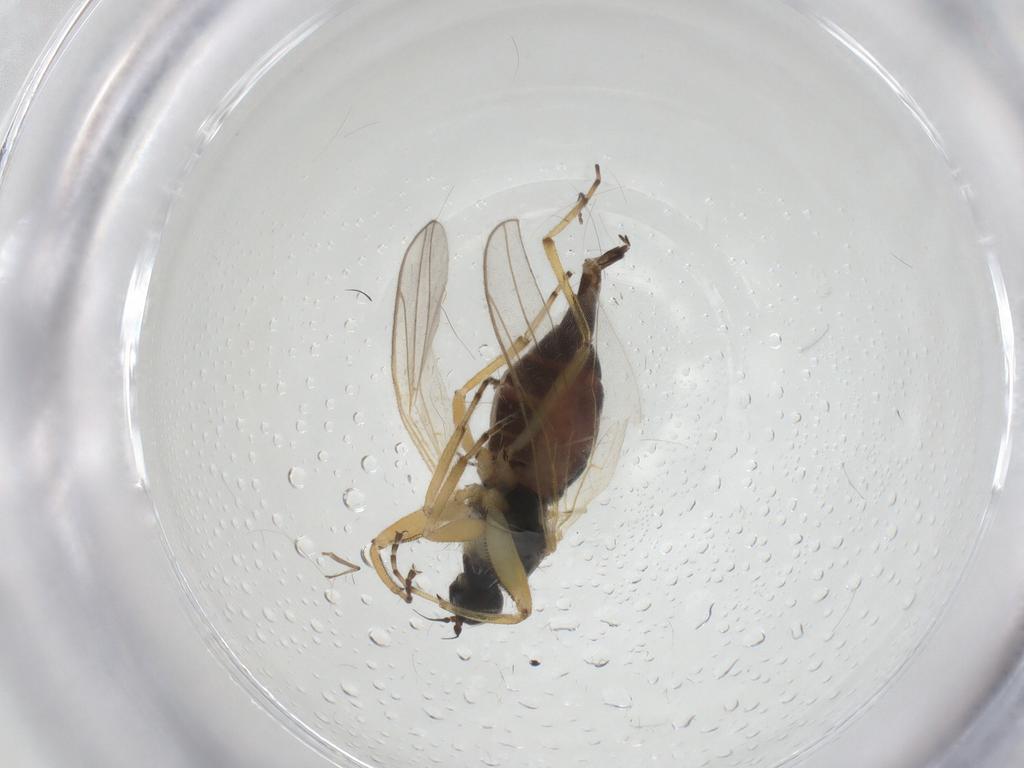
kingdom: Animalia
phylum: Arthropoda
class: Insecta
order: Diptera
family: Hybotidae
